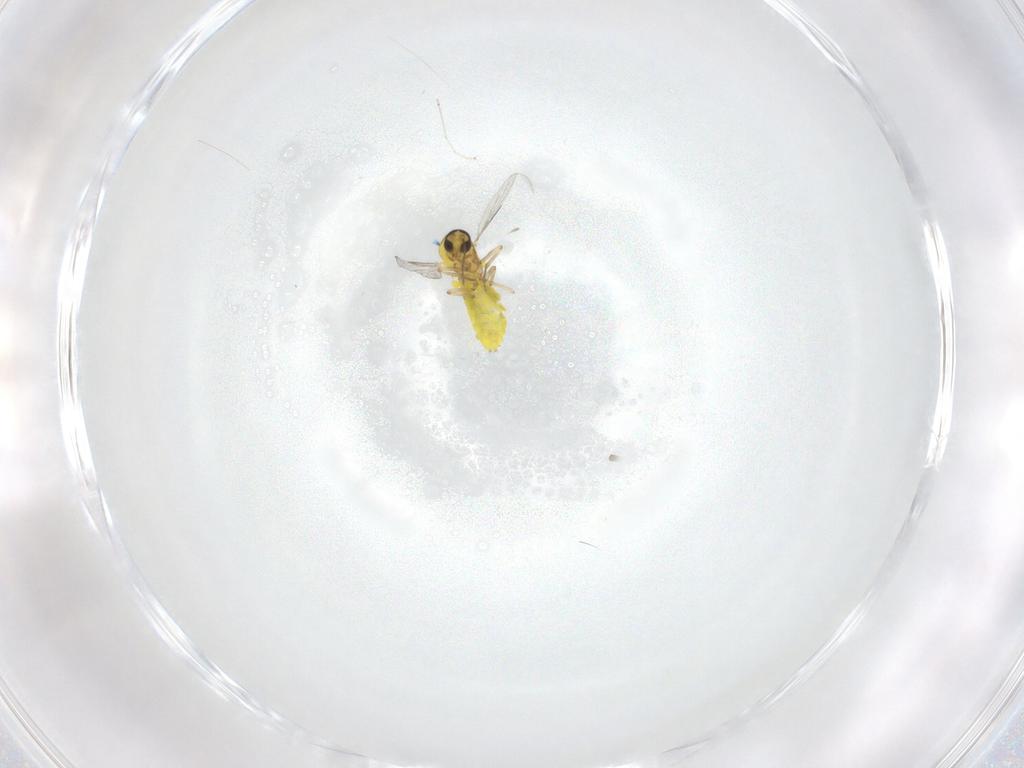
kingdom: Animalia
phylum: Arthropoda
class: Insecta
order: Diptera
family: Ceratopogonidae
